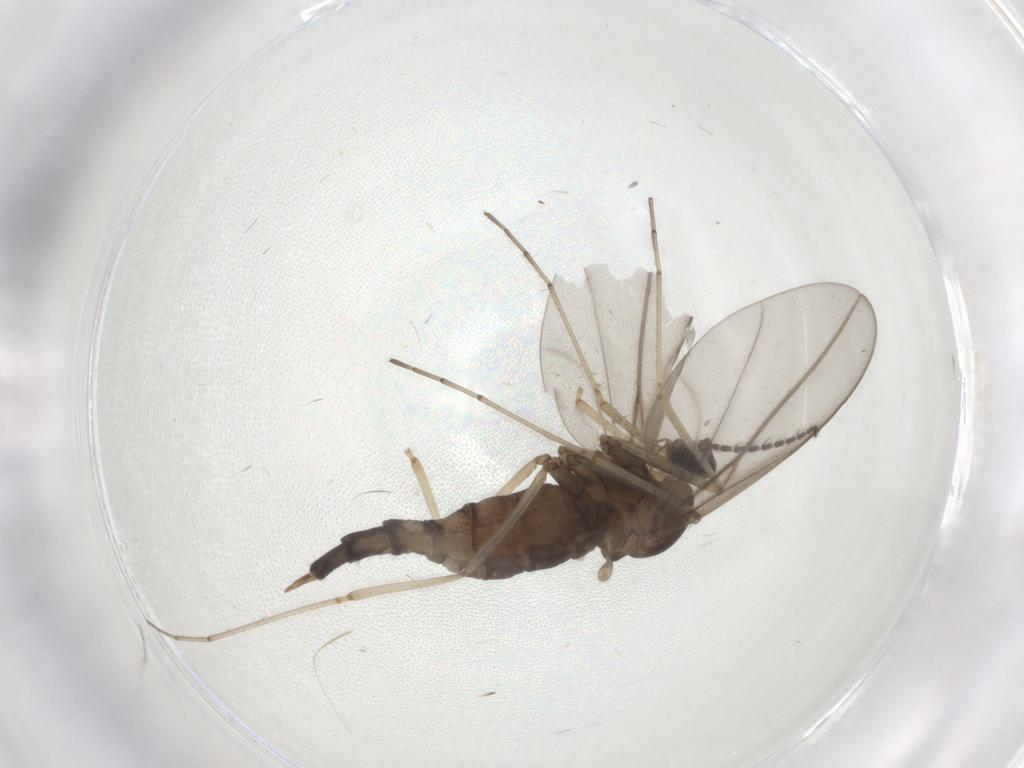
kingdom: Animalia
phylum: Arthropoda
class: Insecta
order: Diptera
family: Cecidomyiidae
